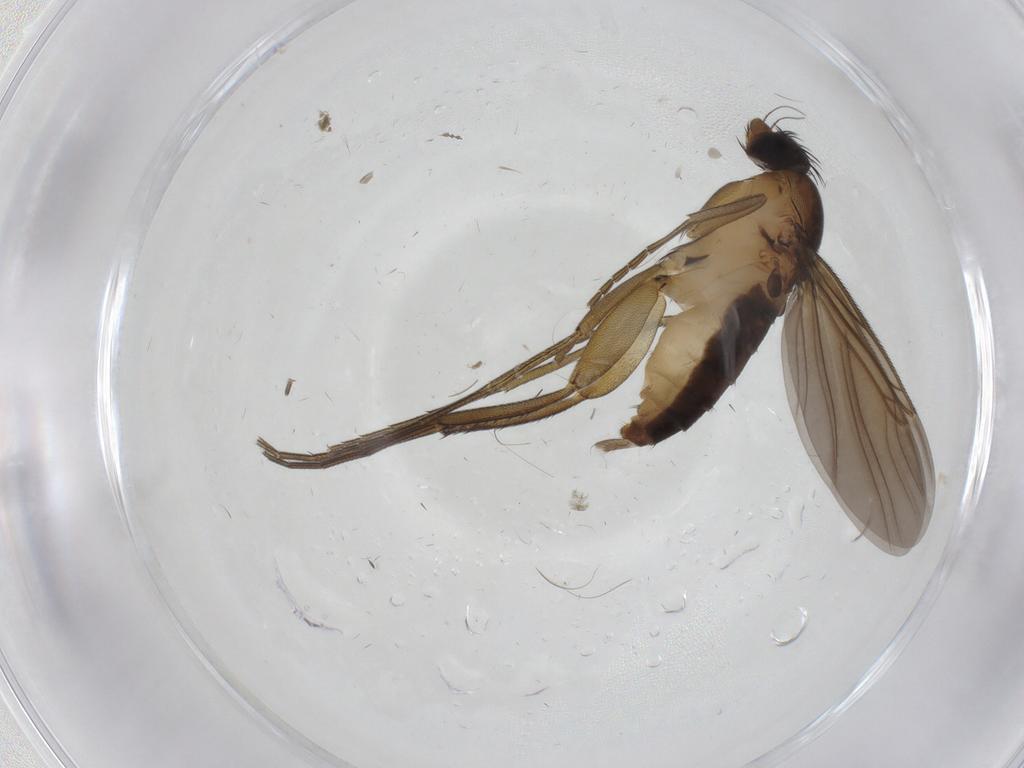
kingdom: Animalia
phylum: Arthropoda
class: Insecta
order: Diptera
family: Phoridae
